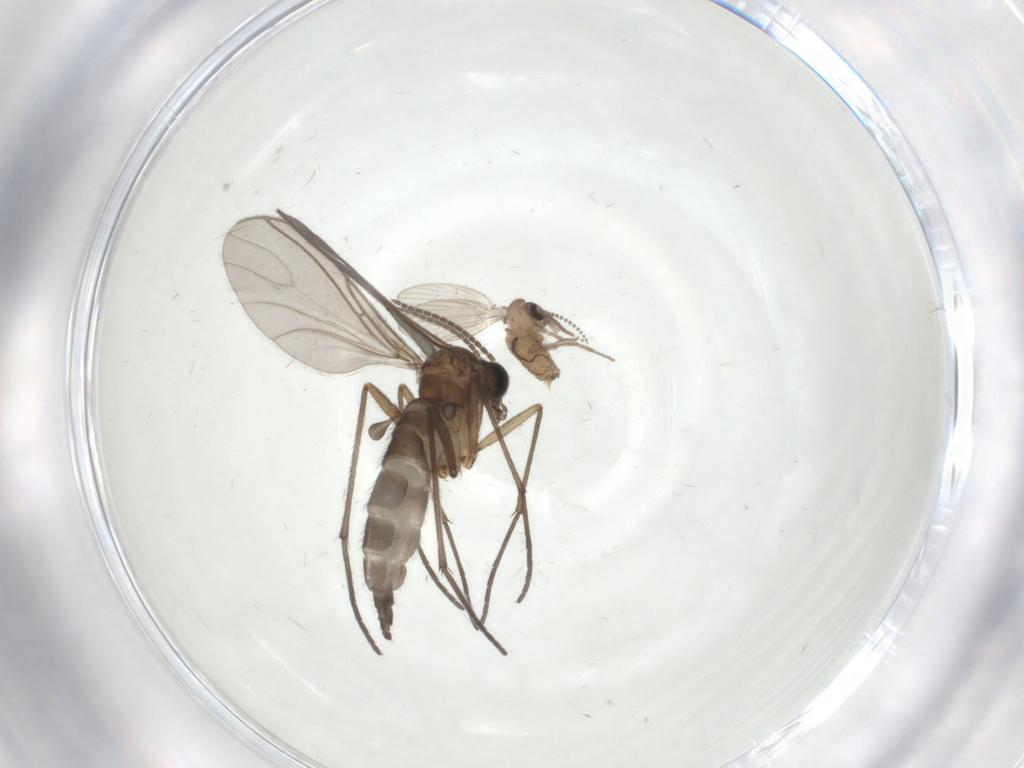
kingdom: Animalia
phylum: Arthropoda
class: Insecta
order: Diptera
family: Sciaridae
